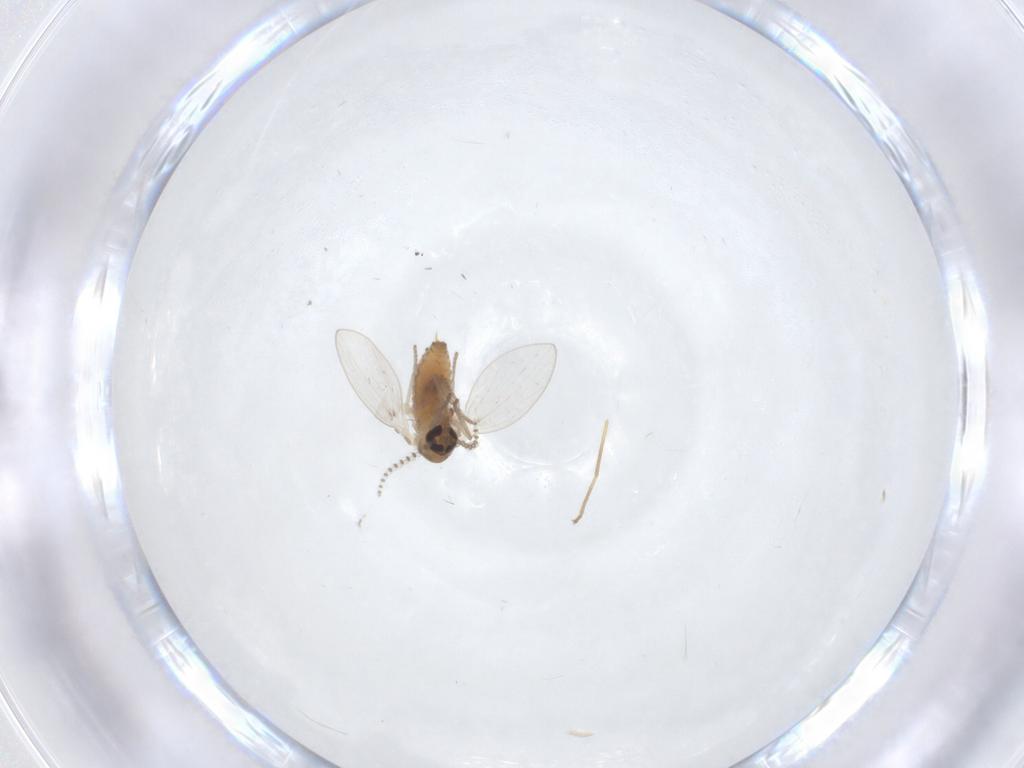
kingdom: Animalia
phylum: Arthropoda
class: Insecta
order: Diptera
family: Psychodidae
